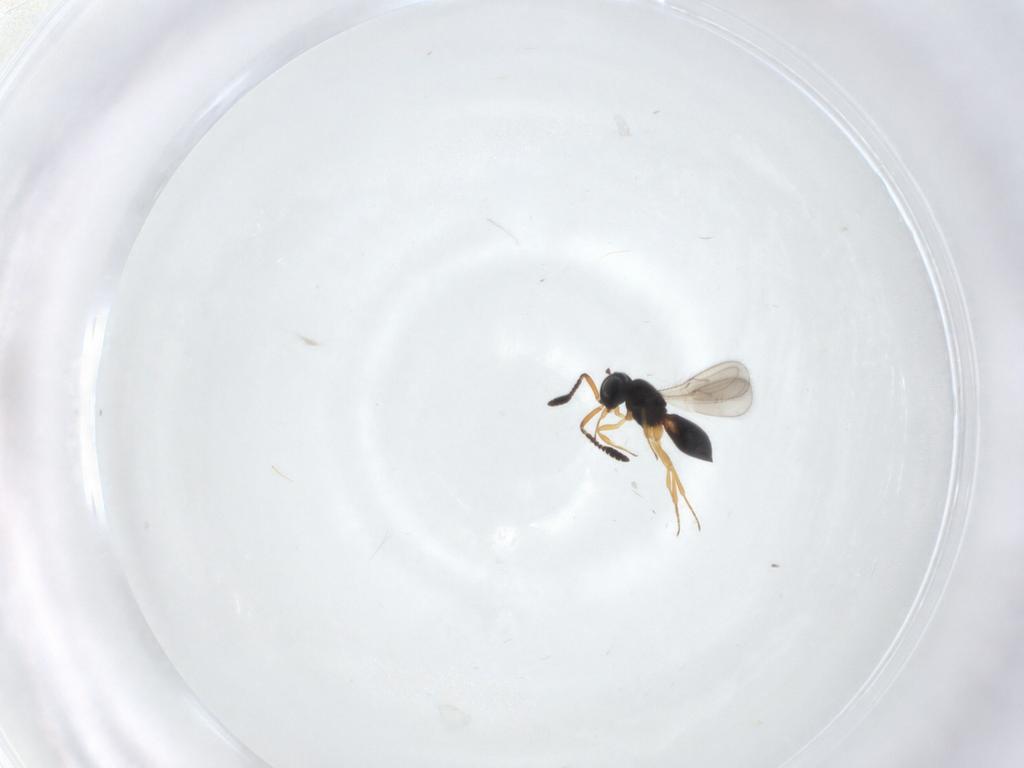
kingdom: Animalia
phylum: Arthropoda
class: Insecta
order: Hymenoptera
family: Scelionidae
